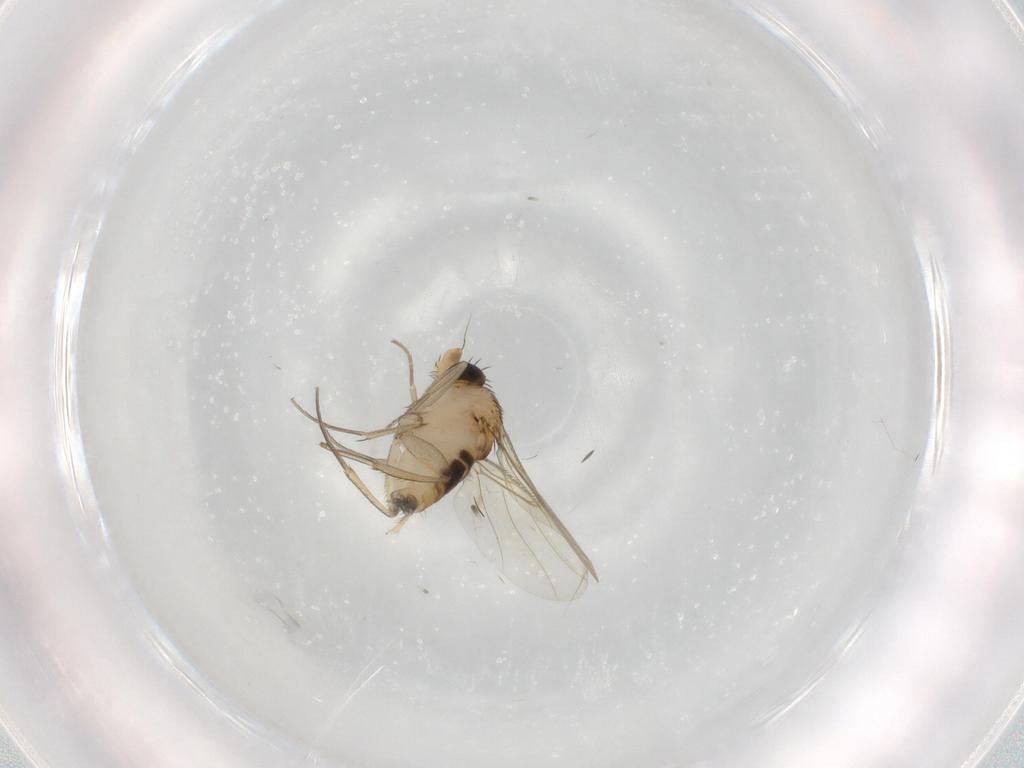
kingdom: Animalia
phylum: Arthropoda
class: Insecta
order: Diptera
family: Phoridae
